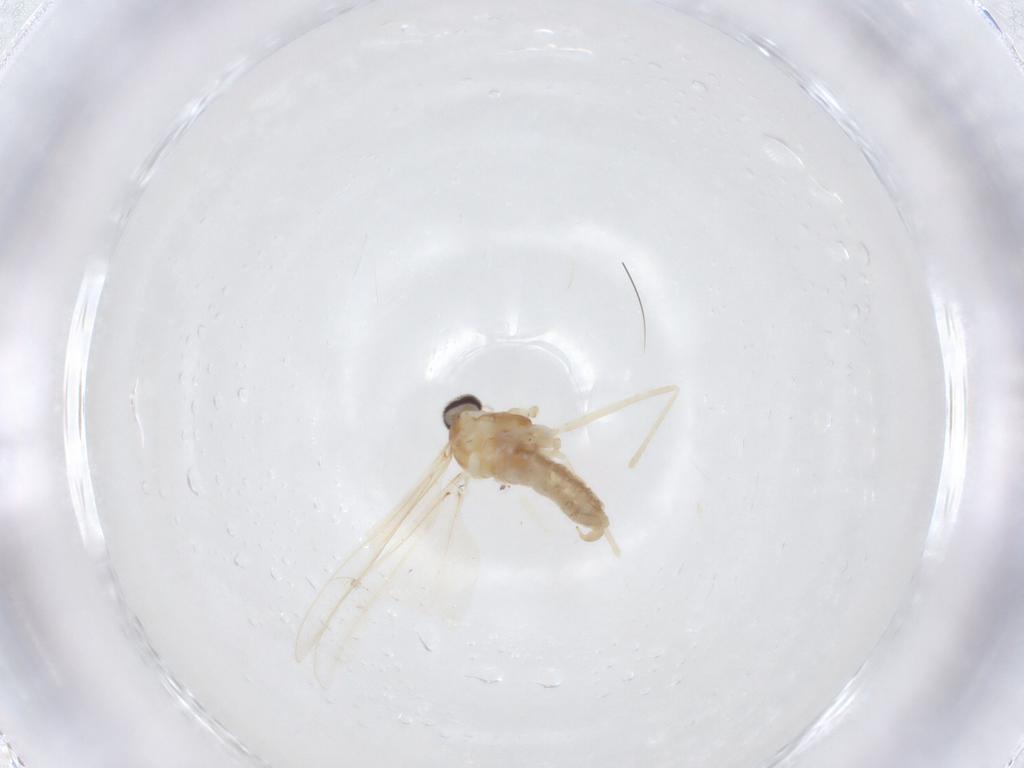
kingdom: Animalia
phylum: Arthropoda
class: Insecta
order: Diptera
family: Cecidomyiidae
